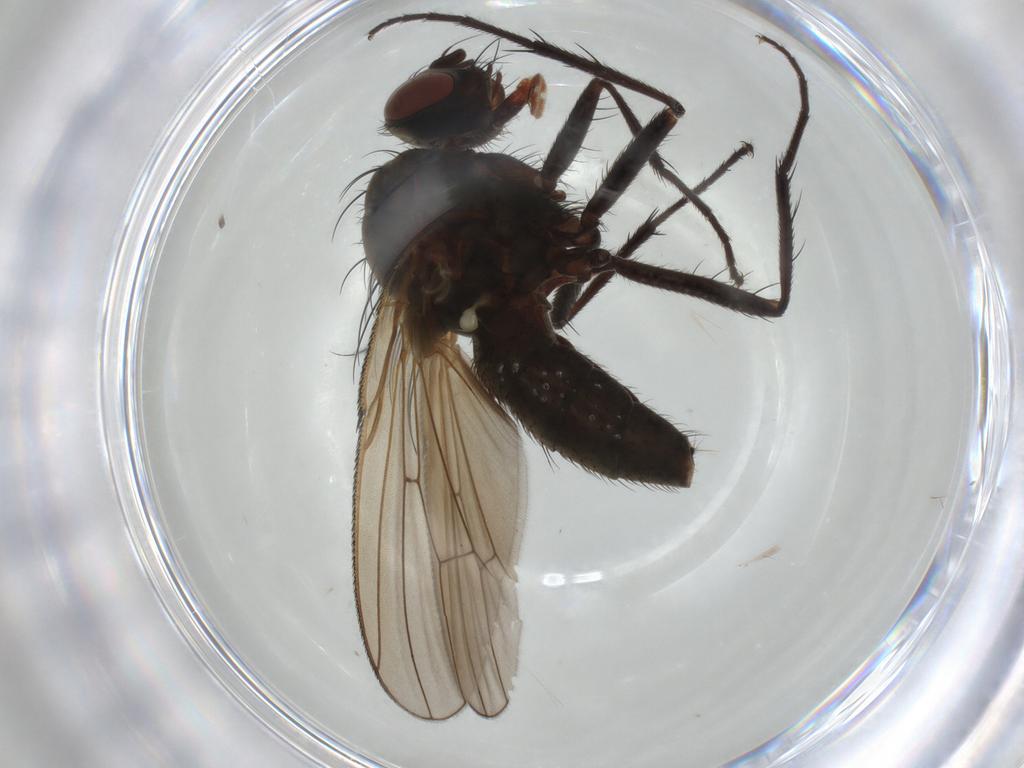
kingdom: Animalia
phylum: Arthropoda
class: Insecta
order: Diptera
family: Anthomyiidae
